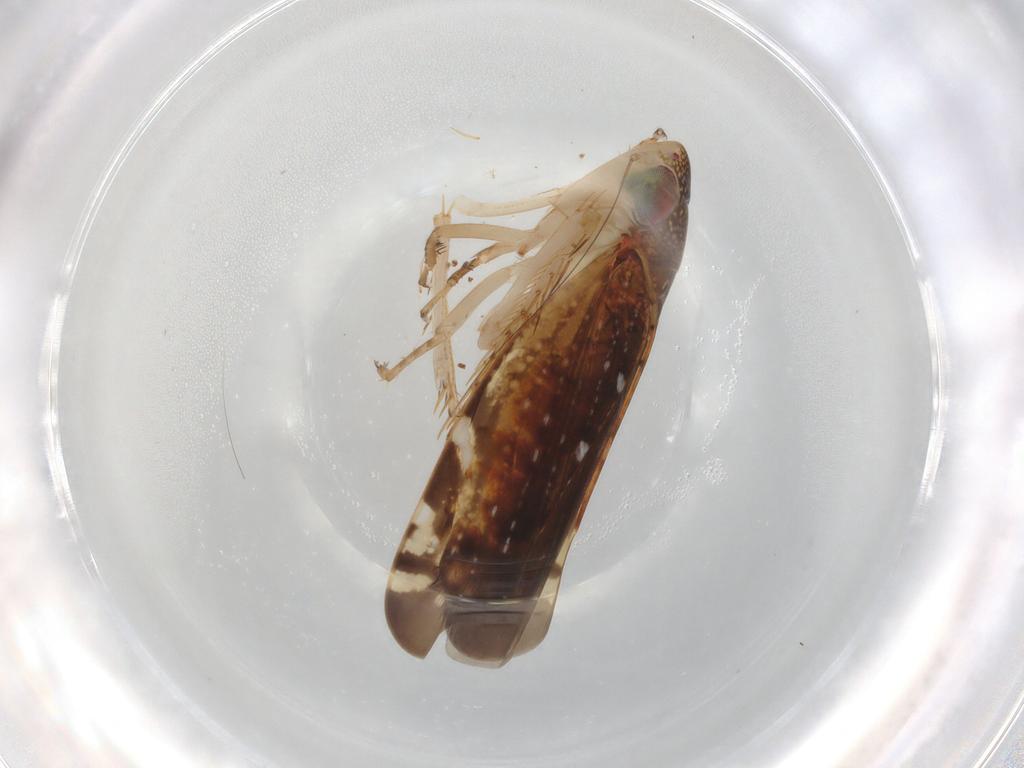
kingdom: Animalia
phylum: Arthropoda
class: Insecta
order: Hemiptera
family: Cicadellidae
